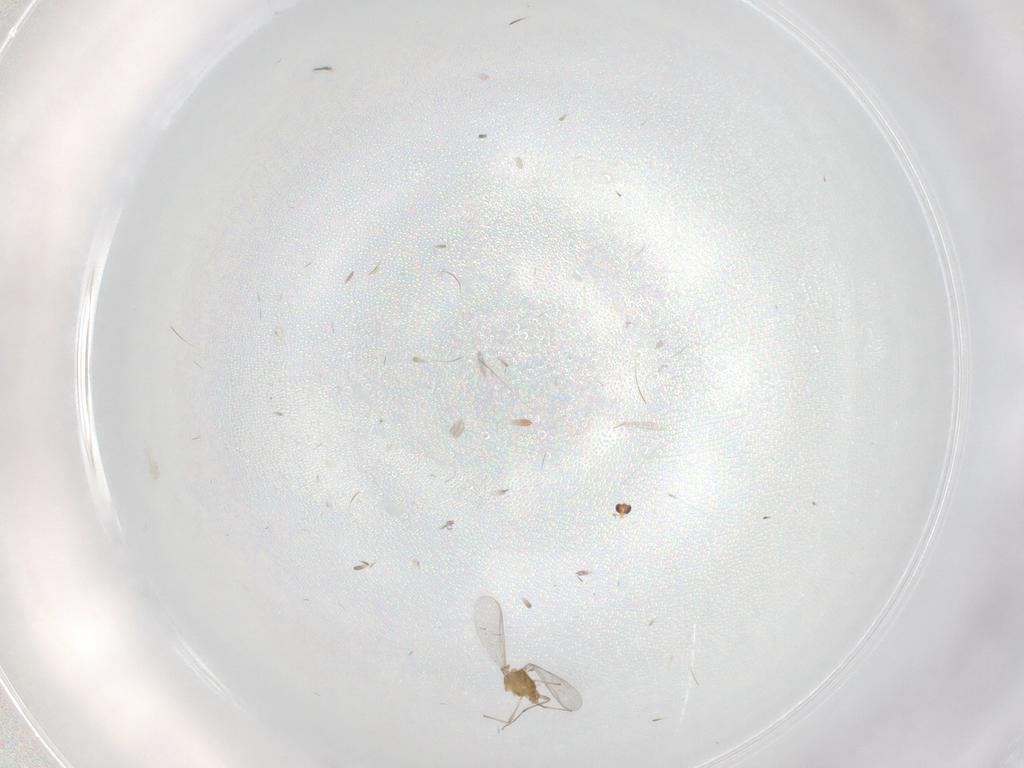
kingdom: Animalia
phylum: Arthropoda
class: Insecta
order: Diptera
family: Chironomidae
